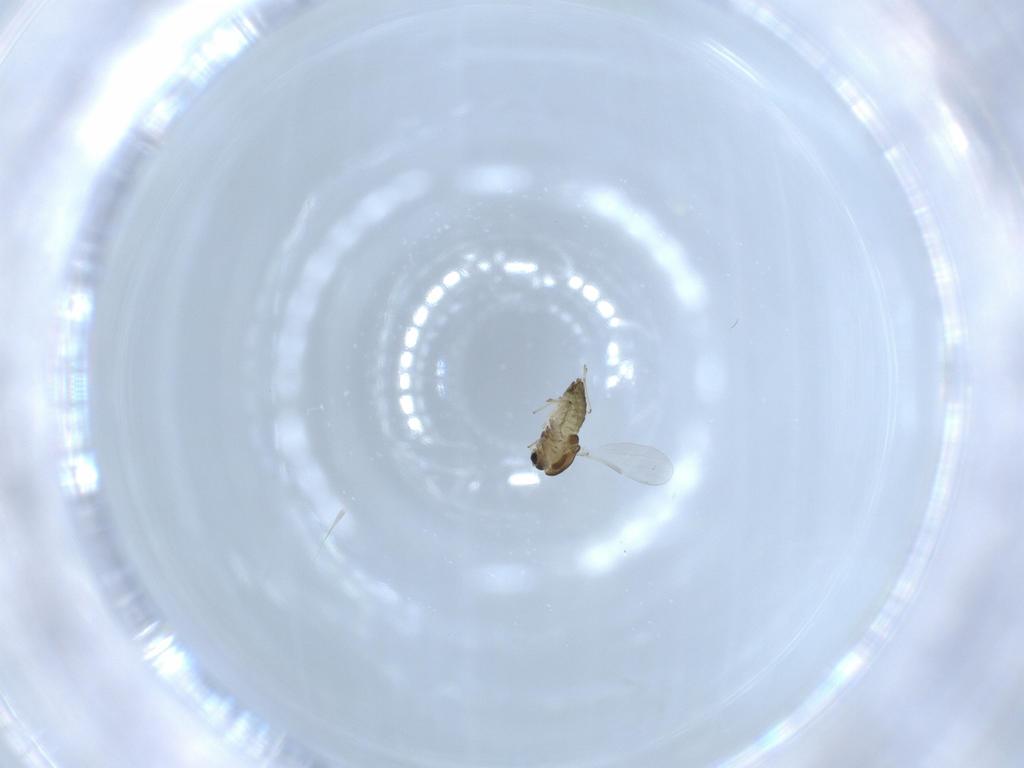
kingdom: Animalia
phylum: Arthropoda
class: Insecta
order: Diptera
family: Chironomidae
